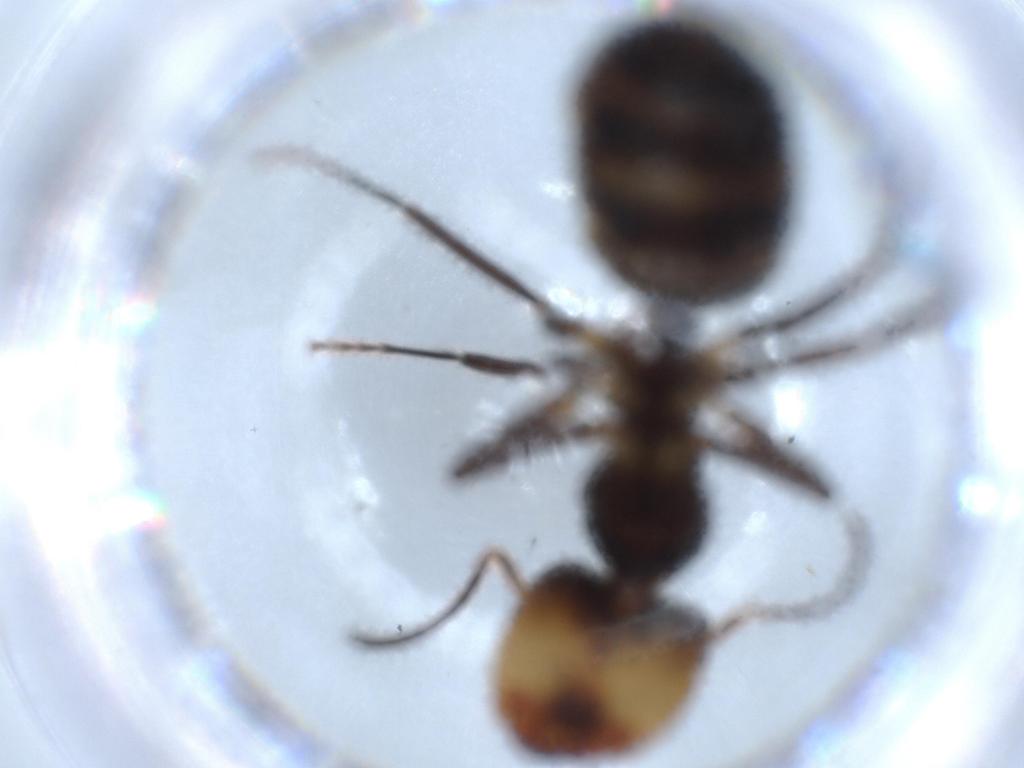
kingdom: Animalia
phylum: Arthropoda
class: Insecta
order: Hymenoptera
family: Formicidae
